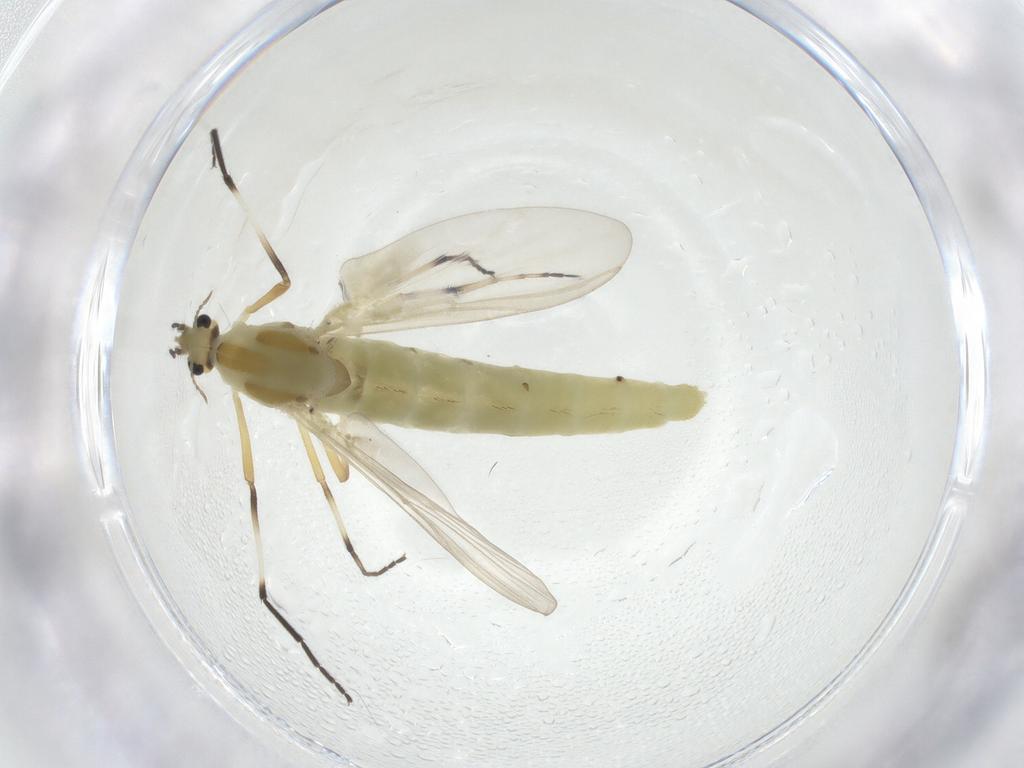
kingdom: Animalia
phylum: Arthropoda
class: Insecta
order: Diptera
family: Chironomidae
